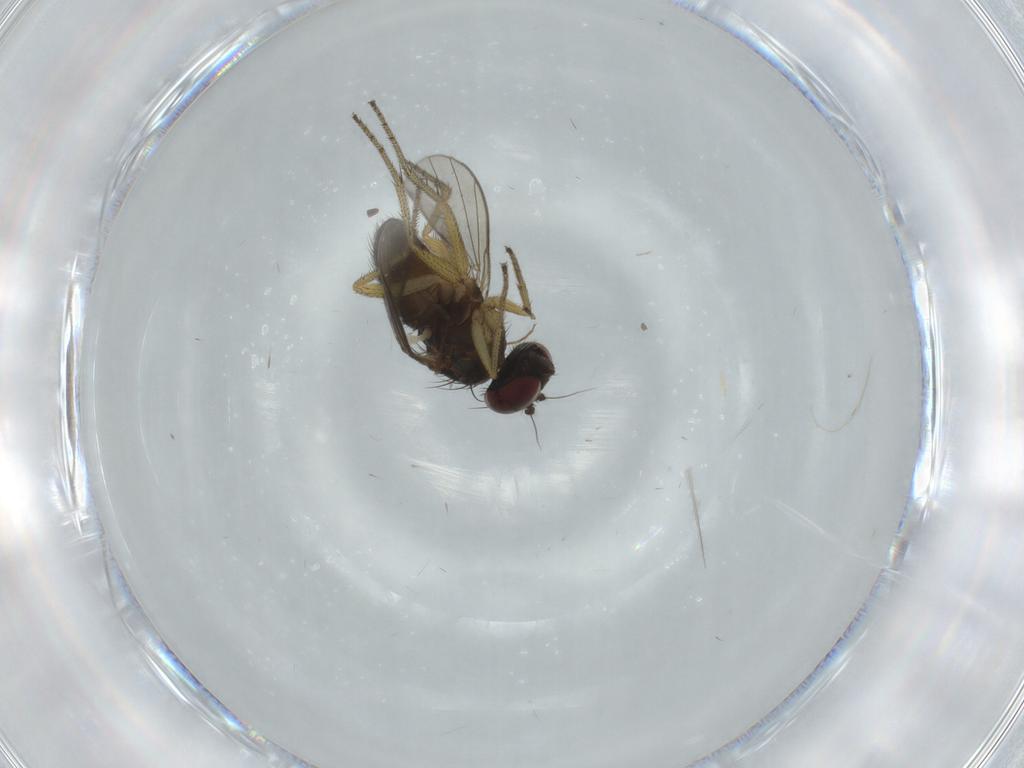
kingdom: Animalia
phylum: Arthropoda
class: Insecta
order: Diptera
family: Dolichopodidae
